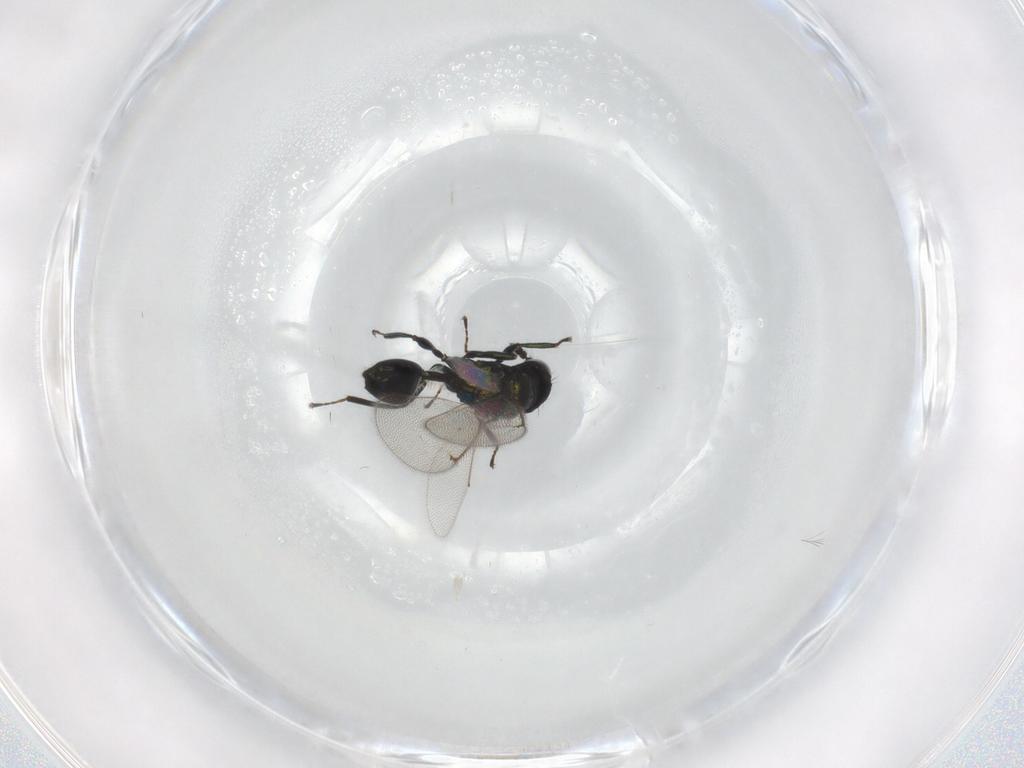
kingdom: Animalia
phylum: Arthropoda
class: Insecta
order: Hymenoptera
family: Eulophidae
